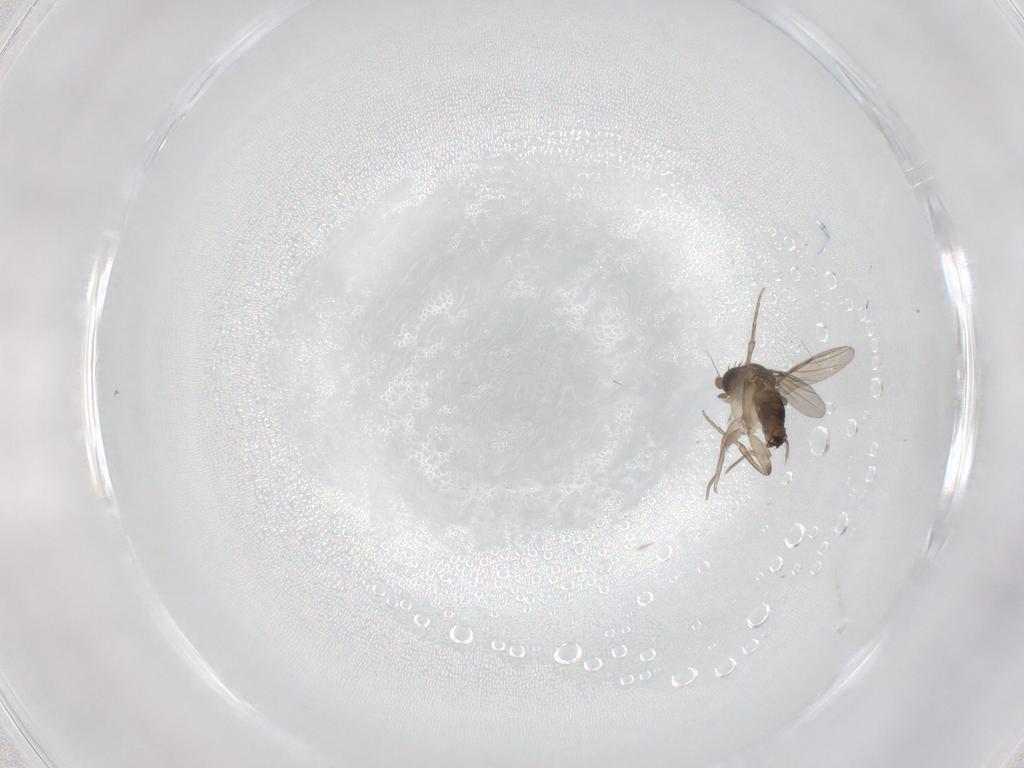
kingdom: Animalia
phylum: Arthropoda
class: Insecta
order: Diptera
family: Phoridae
